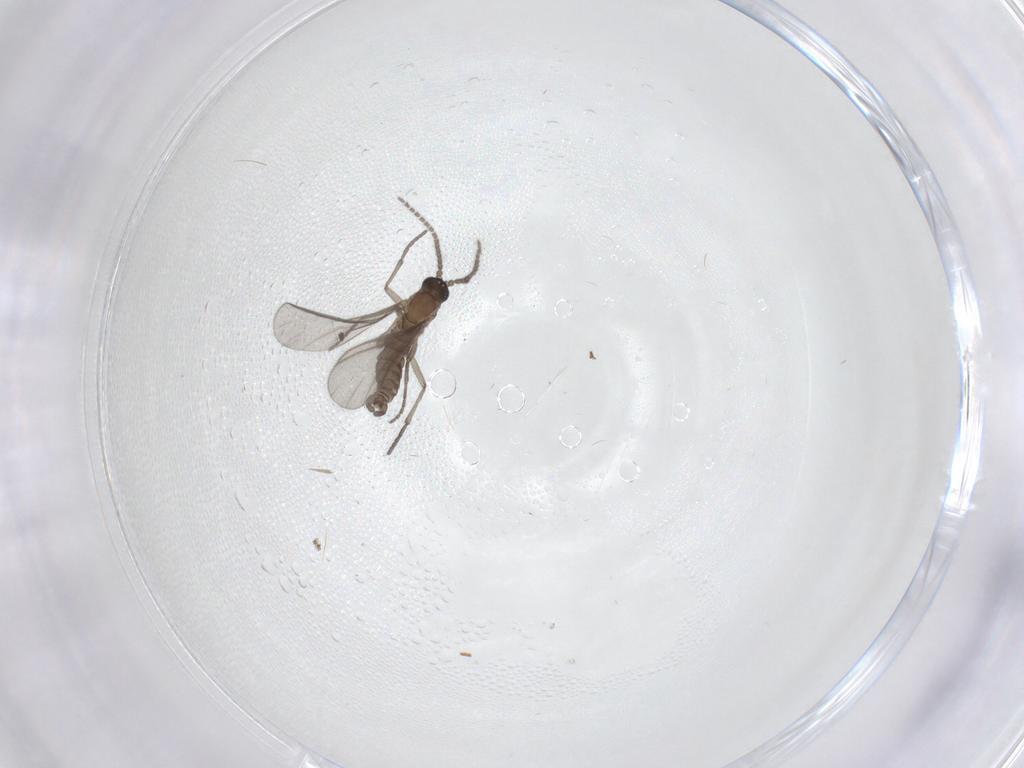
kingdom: Animalia
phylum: Arthropoda
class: Insecta
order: Diptera
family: Sciaridae
